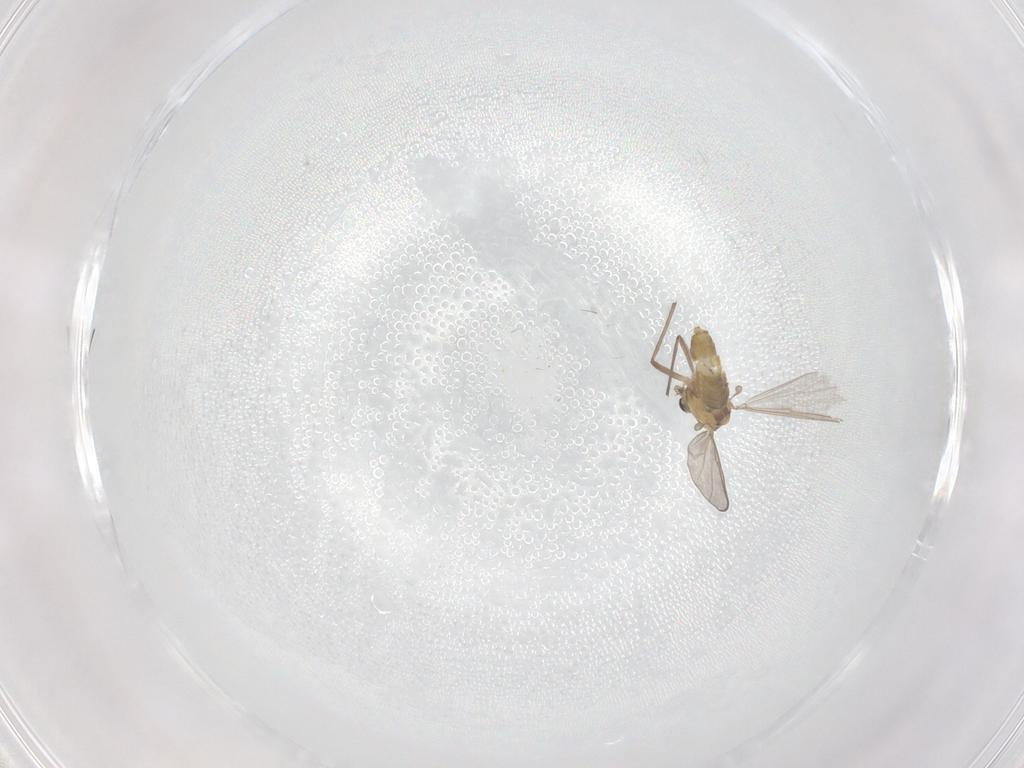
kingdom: Animalia
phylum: Arthropoda
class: Insecta
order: Diptera
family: Chironomidae
